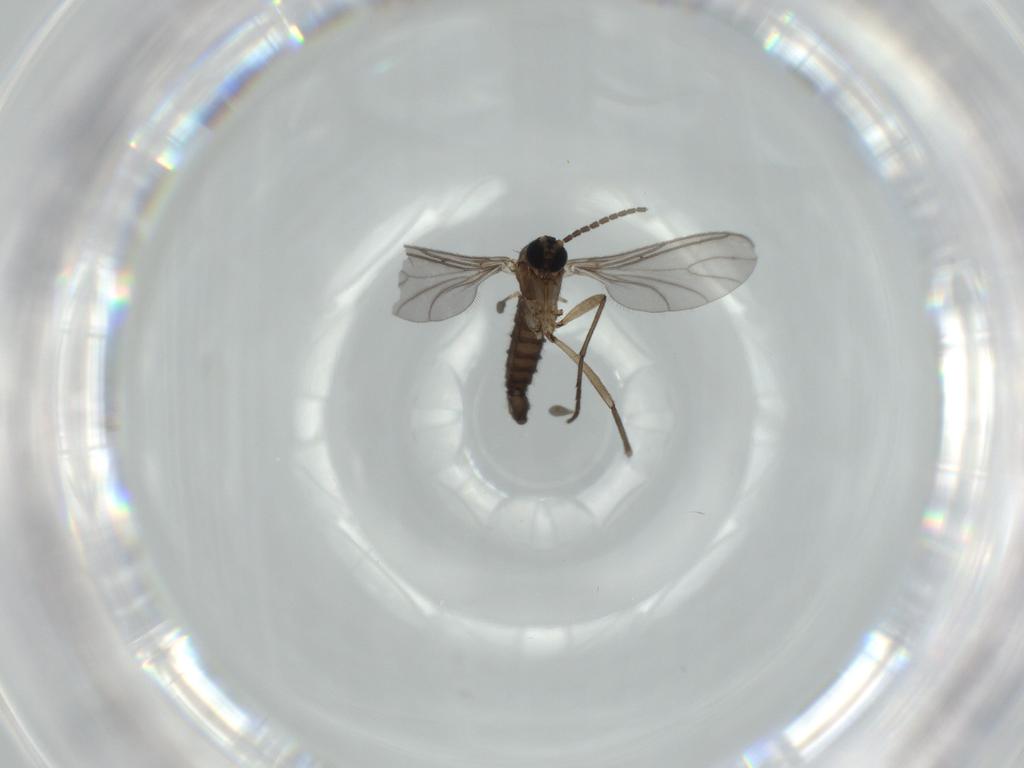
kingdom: Animalia
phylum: Arthropoda
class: Insecta
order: Diptera
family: Sciaridae
